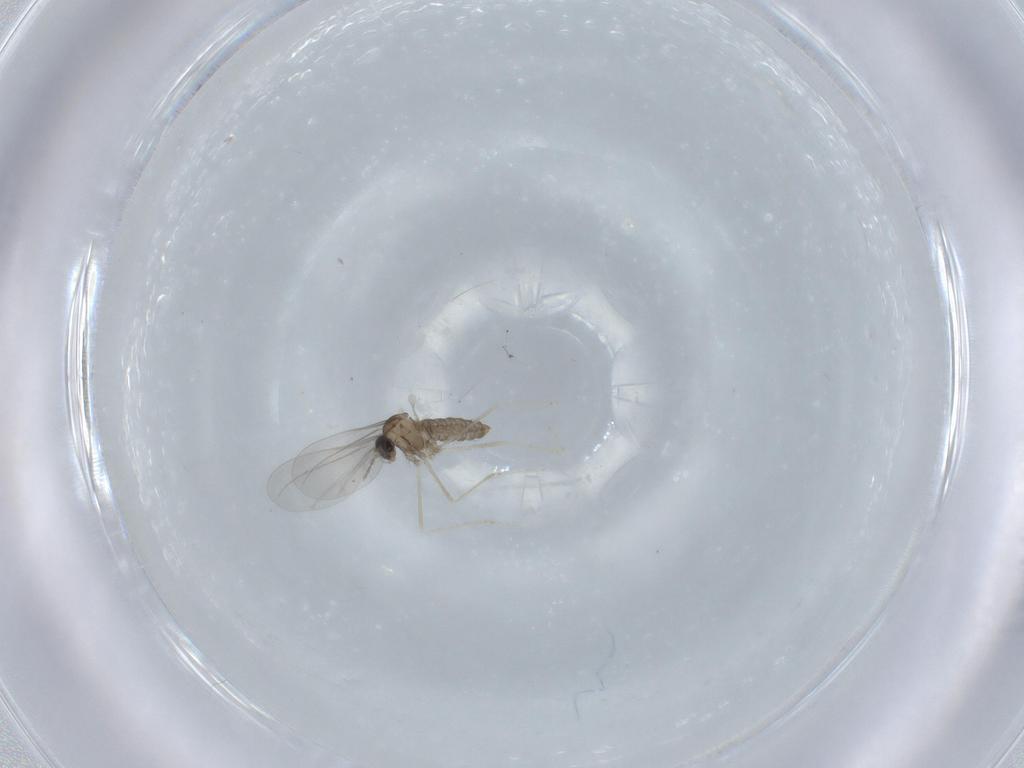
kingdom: Animalia
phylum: Arthropoda
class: Insecta
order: Diptera
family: Cecidomyiidae
